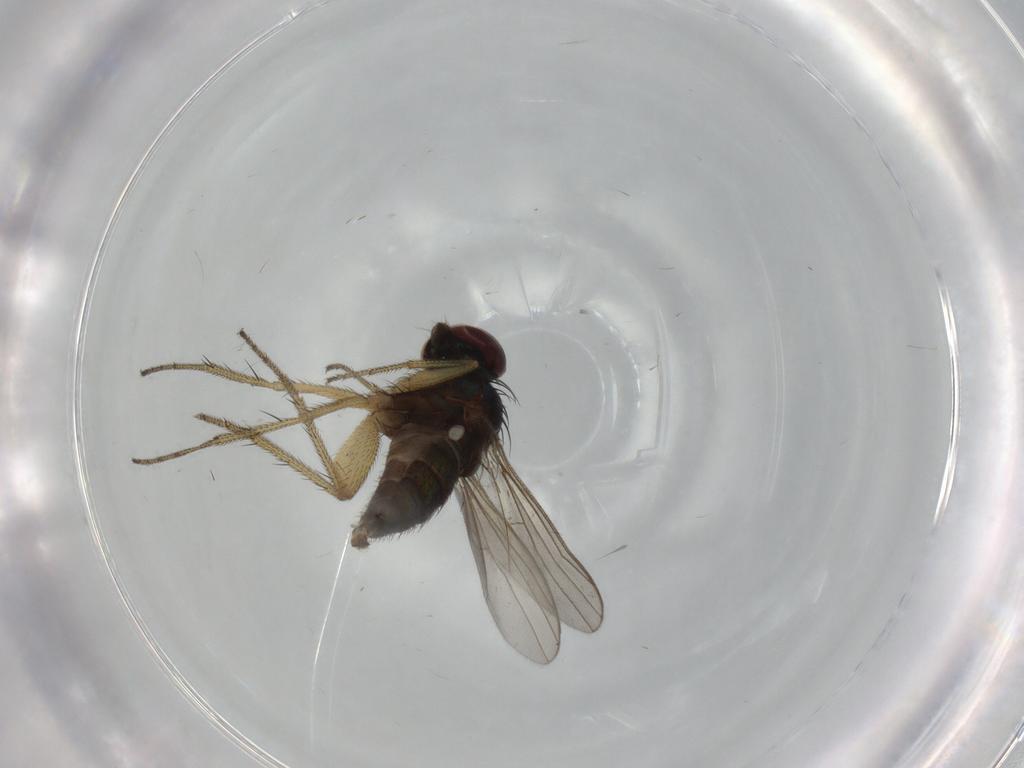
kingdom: Animalia
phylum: Arthropoda
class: Insecta
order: Diptera
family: Dolichopodidae
